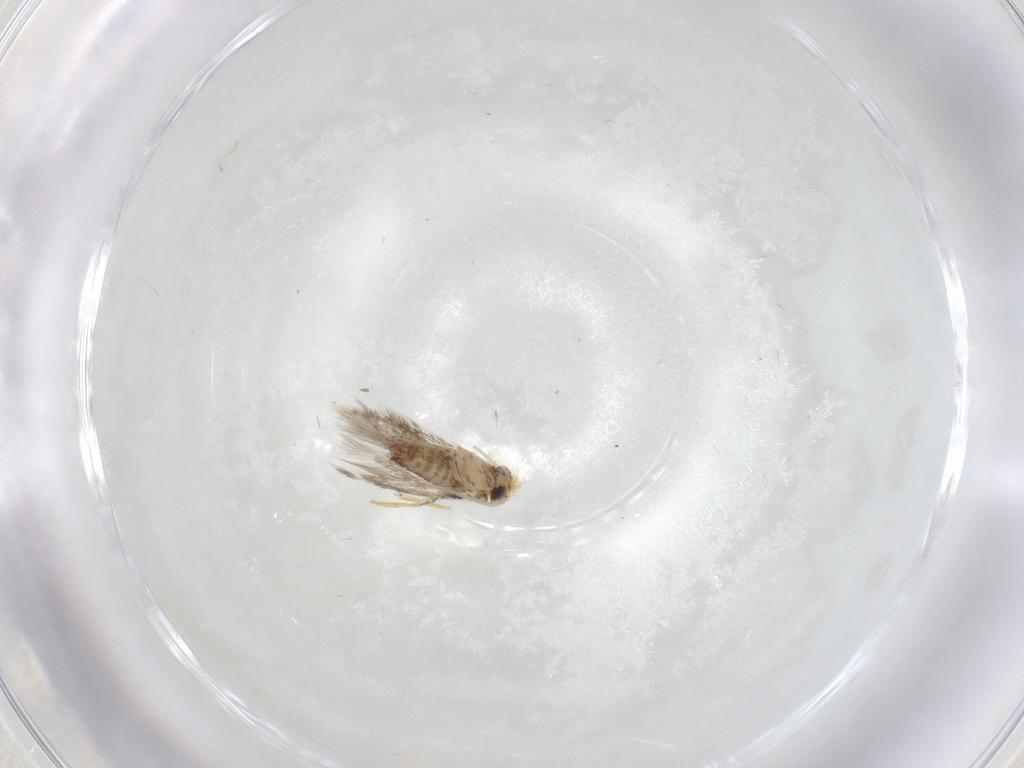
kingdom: Animalia
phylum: Arthropoda
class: Insecta
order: Lepidoptera
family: Nepticulidae
